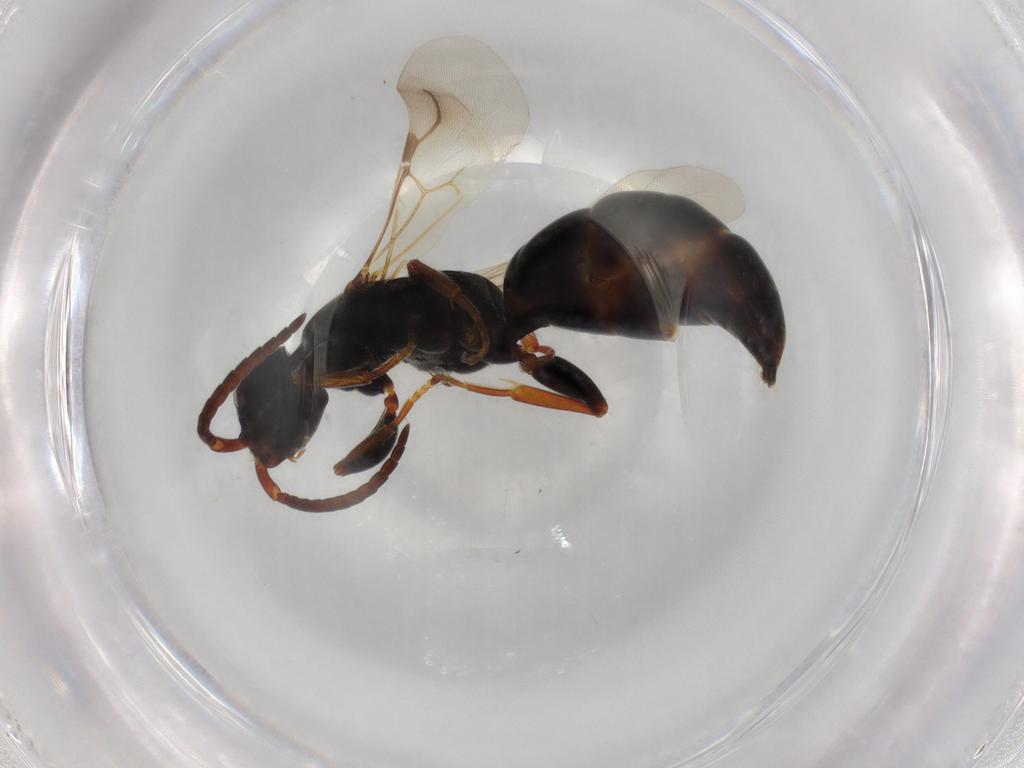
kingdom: Animalia
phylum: Arthropoda
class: Insecta
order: Hymenoptera
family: Bethylidae
